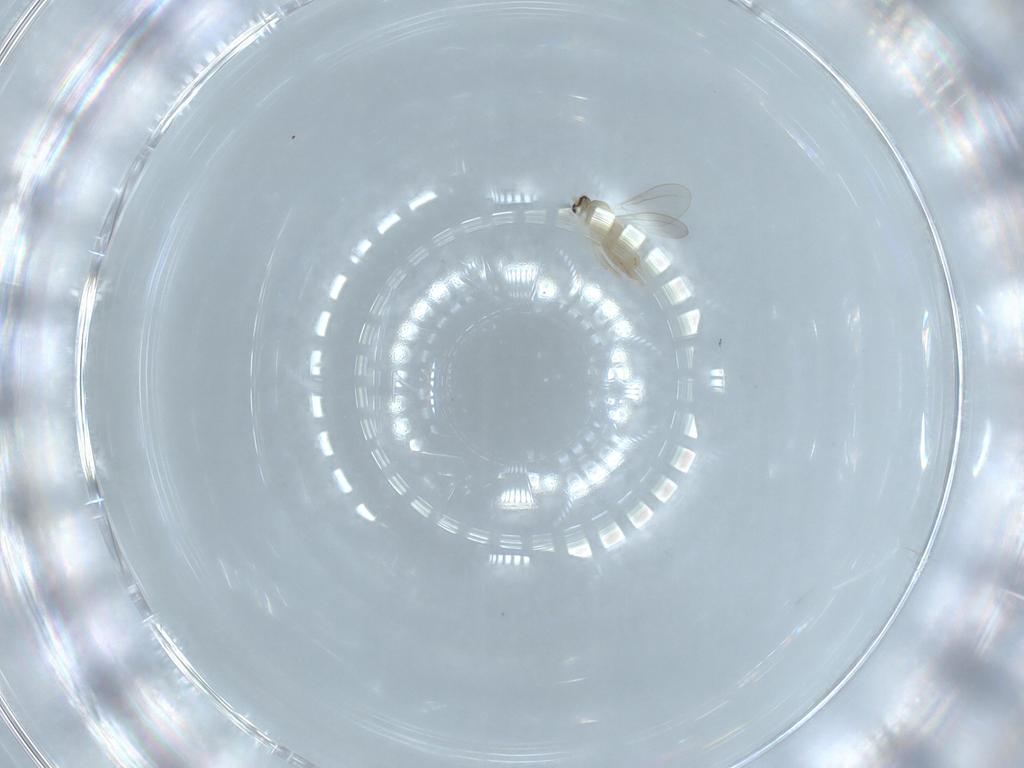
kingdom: Animalia
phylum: Arthropoda
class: Insecta
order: Diptera
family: Cecidomyiidae
